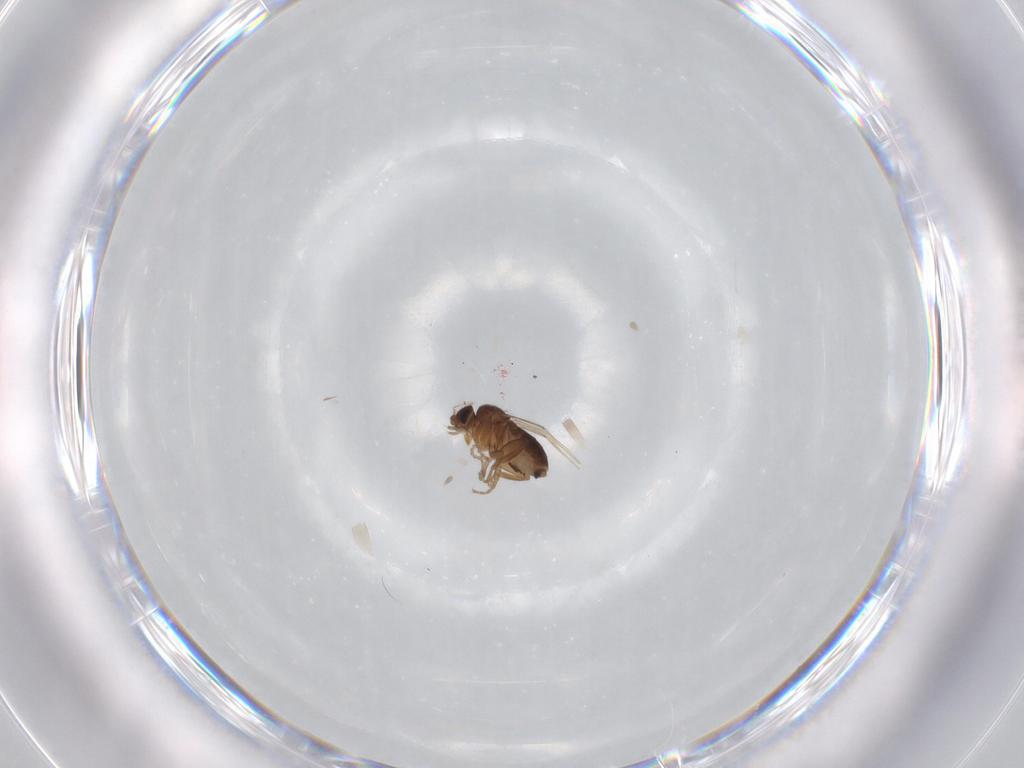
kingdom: Animalia
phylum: Arthropoda
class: Insecta
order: Diptera
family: Phoridae
